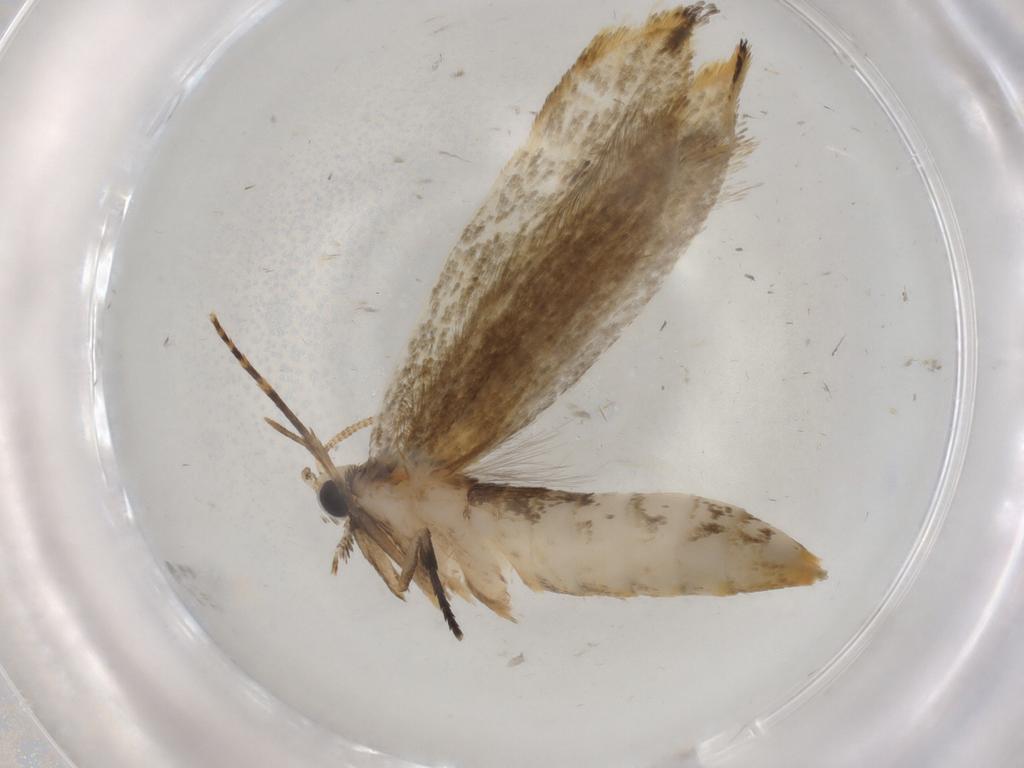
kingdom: Animalia
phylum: Arthropoda
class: Insecta
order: Lepidoptera
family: Tineidae
